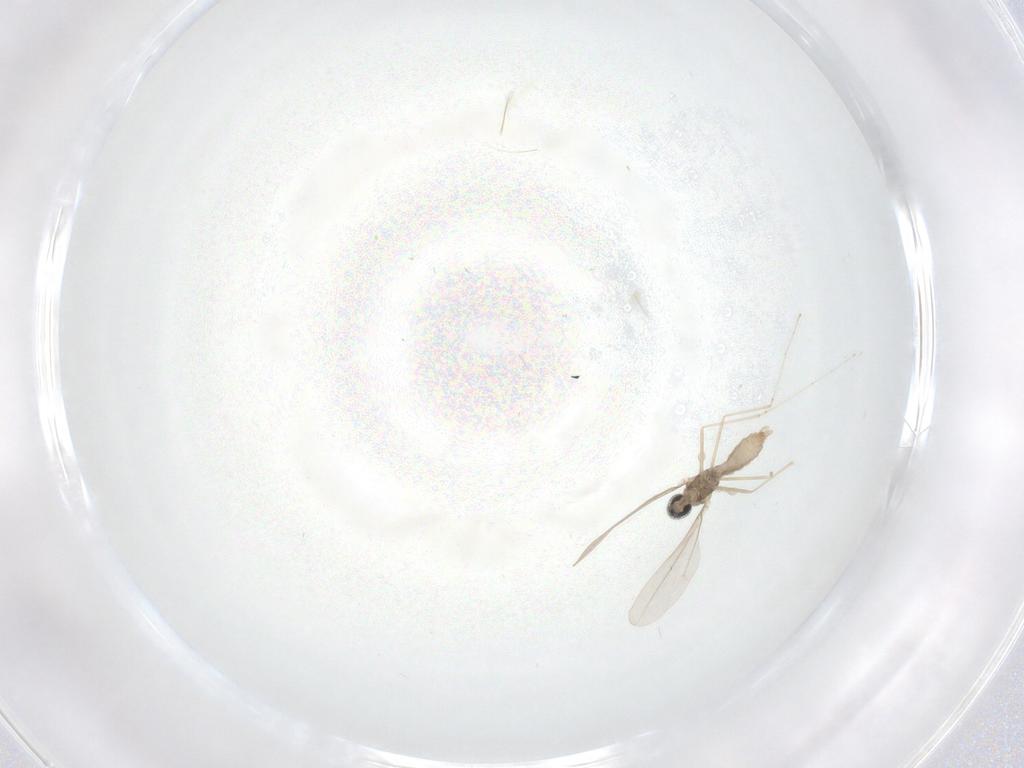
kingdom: Animalia
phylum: Arthropoda
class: Insecta
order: Diptera
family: Cecidomyiidae
